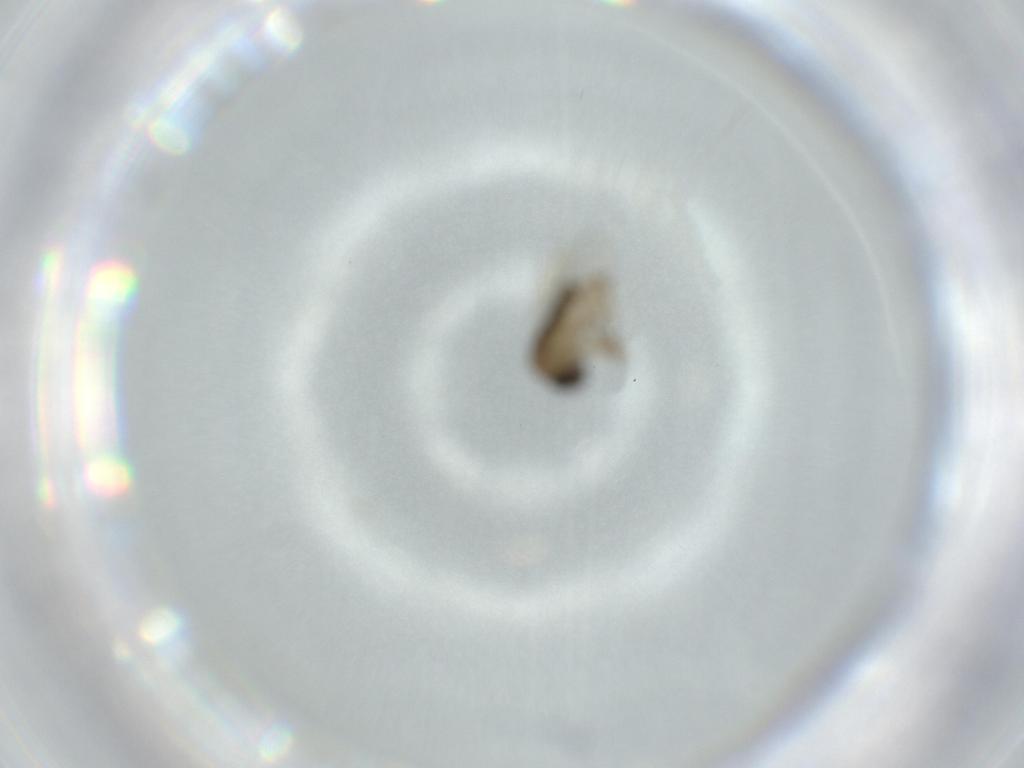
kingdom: Animalia
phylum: Arthropoda
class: Insecta
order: Diptera
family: Phoridae
